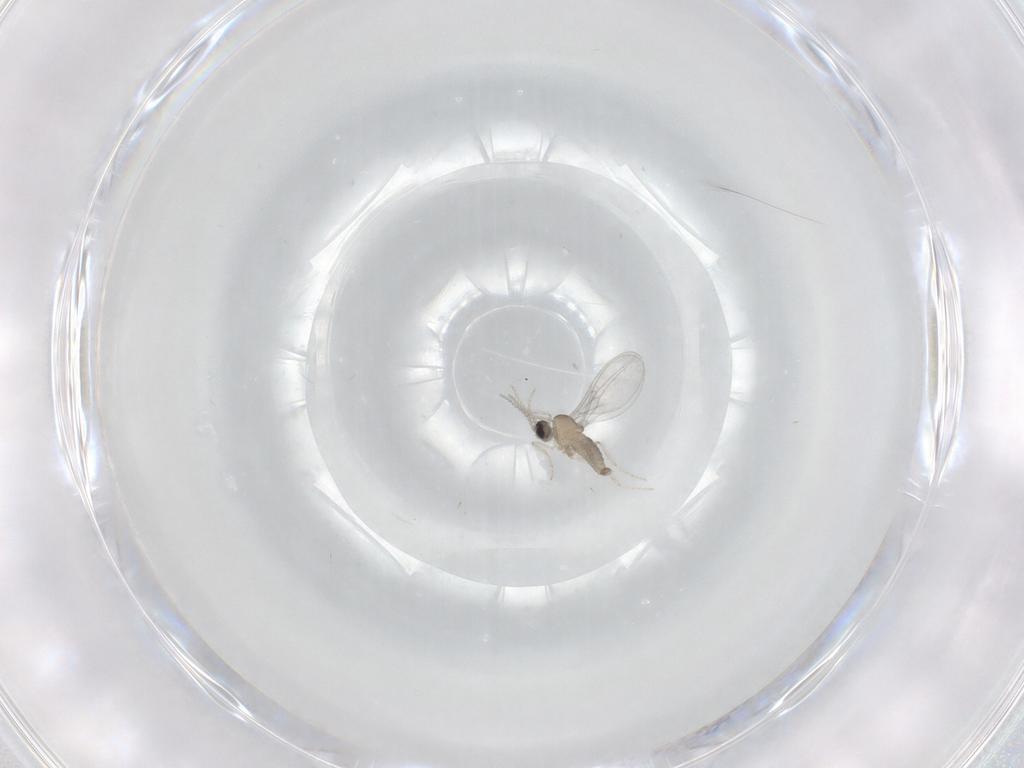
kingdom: Animalia
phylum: Arthropoda
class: Insecta
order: Diptera
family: Cecidomyiidae
